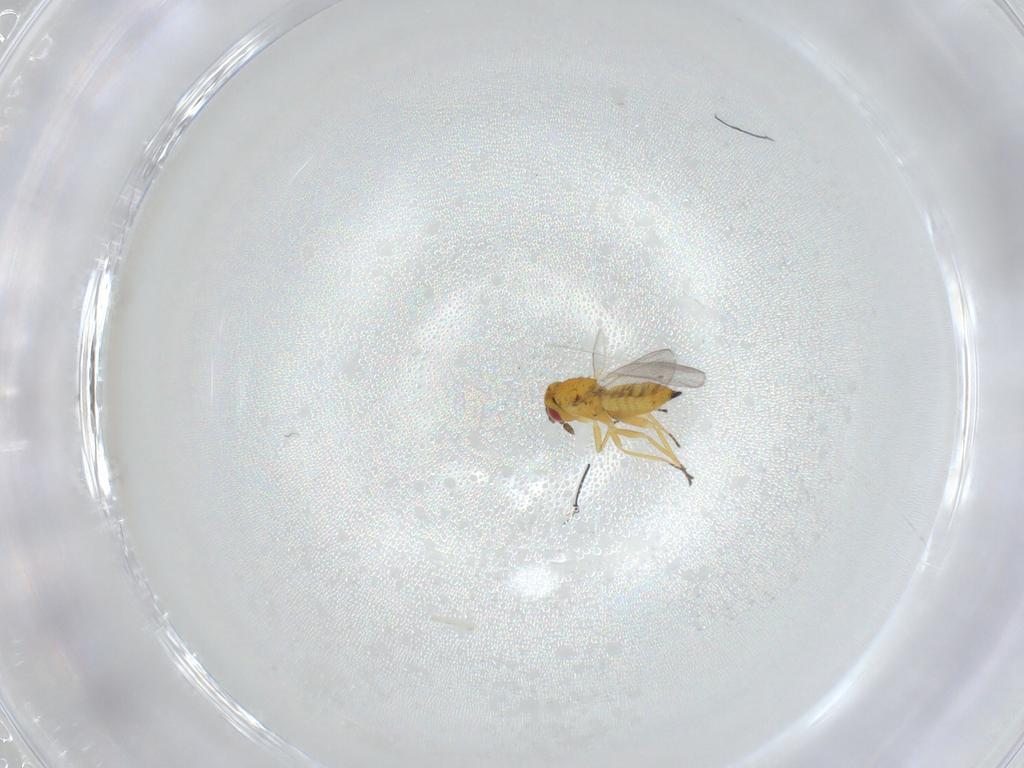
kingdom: Animalia
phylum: Arthropoda
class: Insecta
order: Hymenoptera
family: Eulophidae
